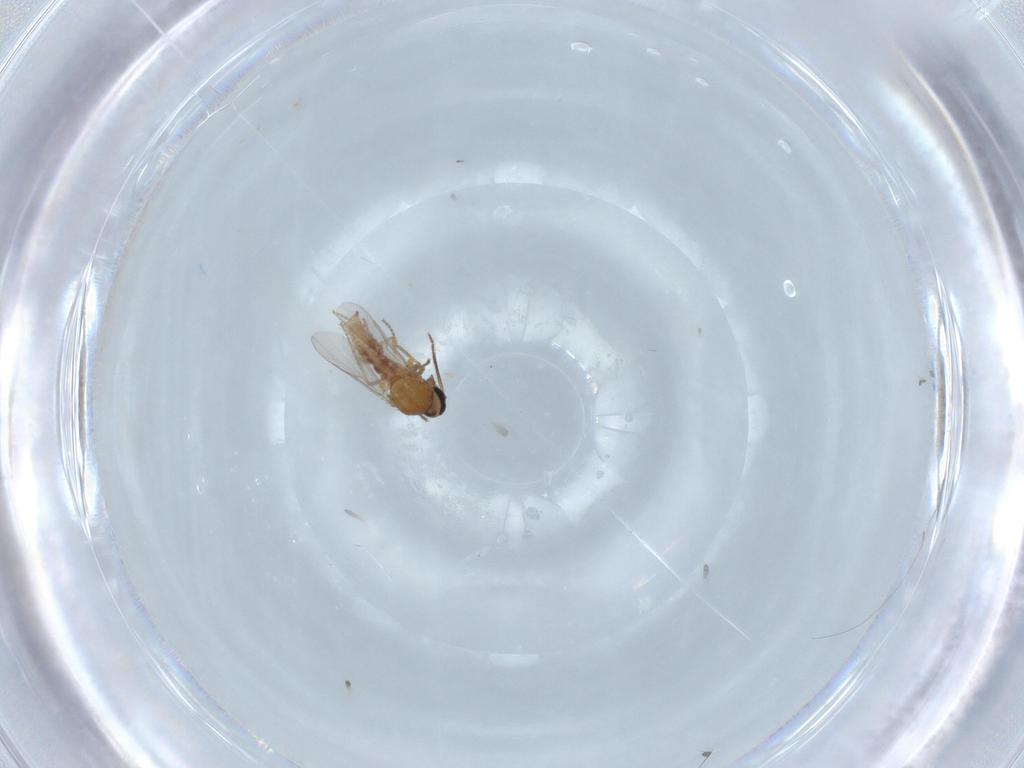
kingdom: Animalia
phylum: Arthropoda
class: Insecta
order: Diptera
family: Ceratopogonidae
